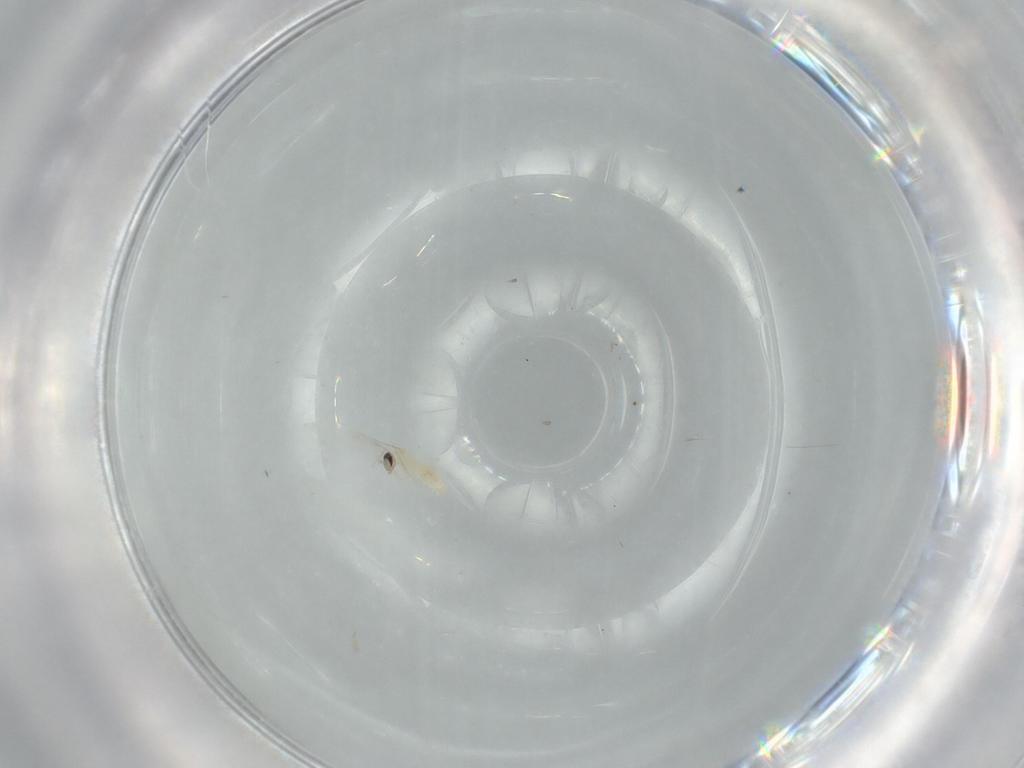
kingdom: Animalia
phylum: Arthropoda
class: Insecta
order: Diptera
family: Cecidomyiidae
